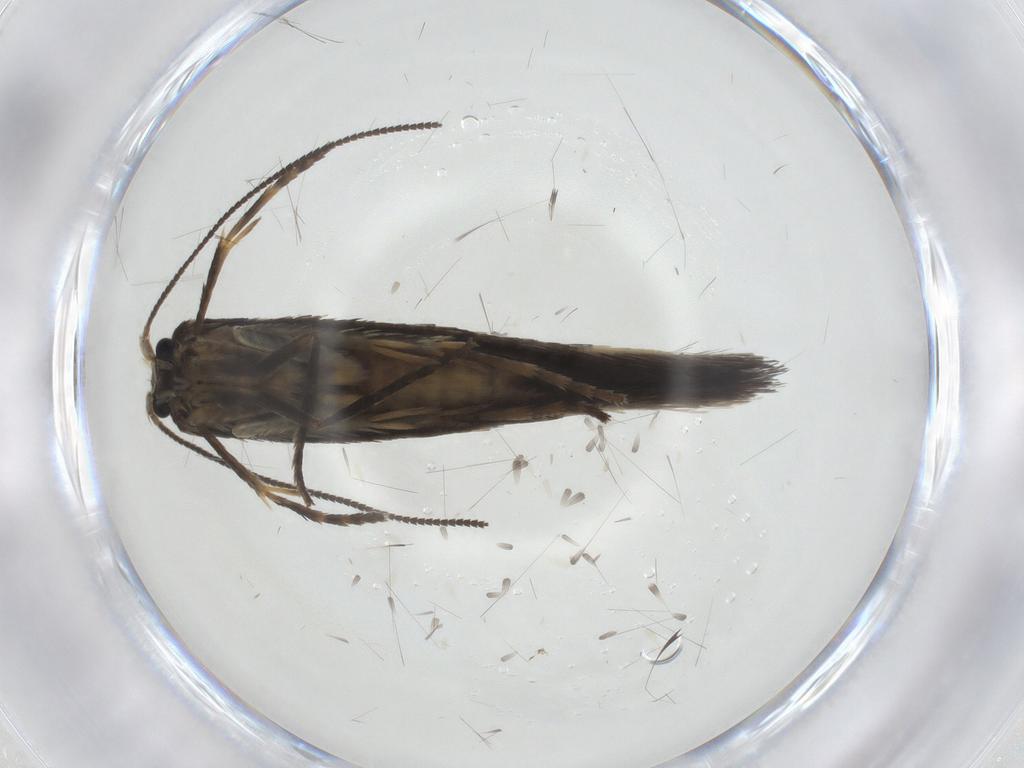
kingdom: Animalia
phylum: Arthropoda
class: Insecta
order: Lepidoptera
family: Nepticulidae
